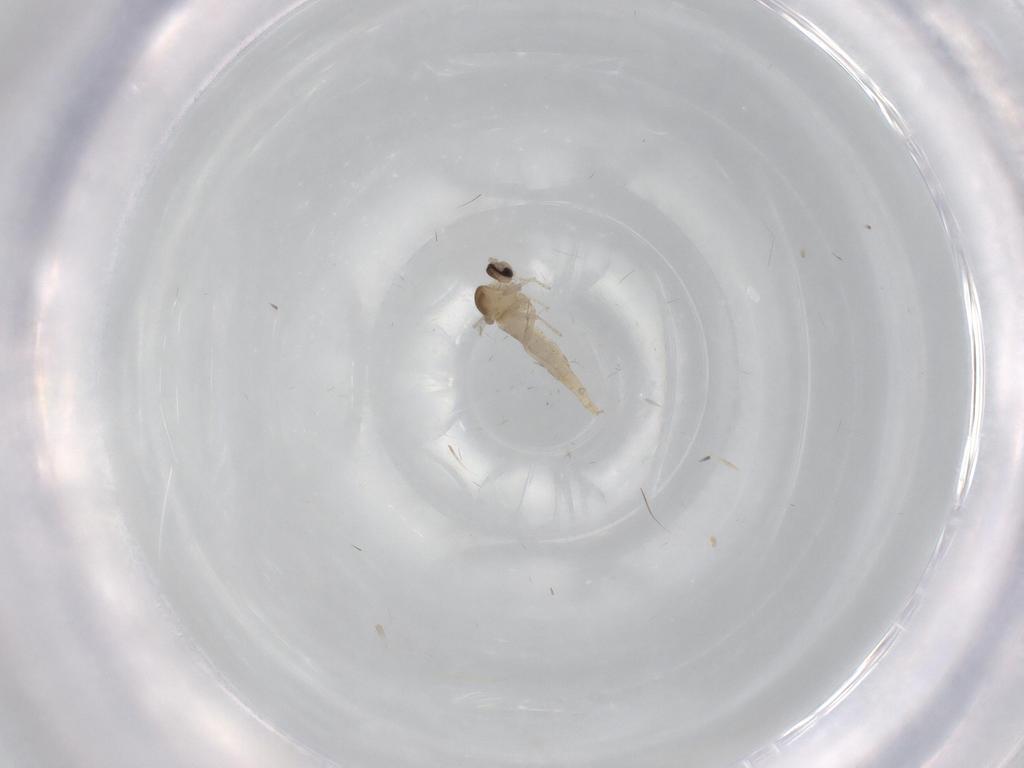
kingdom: Animalia
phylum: Arthropoda
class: Insecta
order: Diptera
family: Cecidomyiidae
